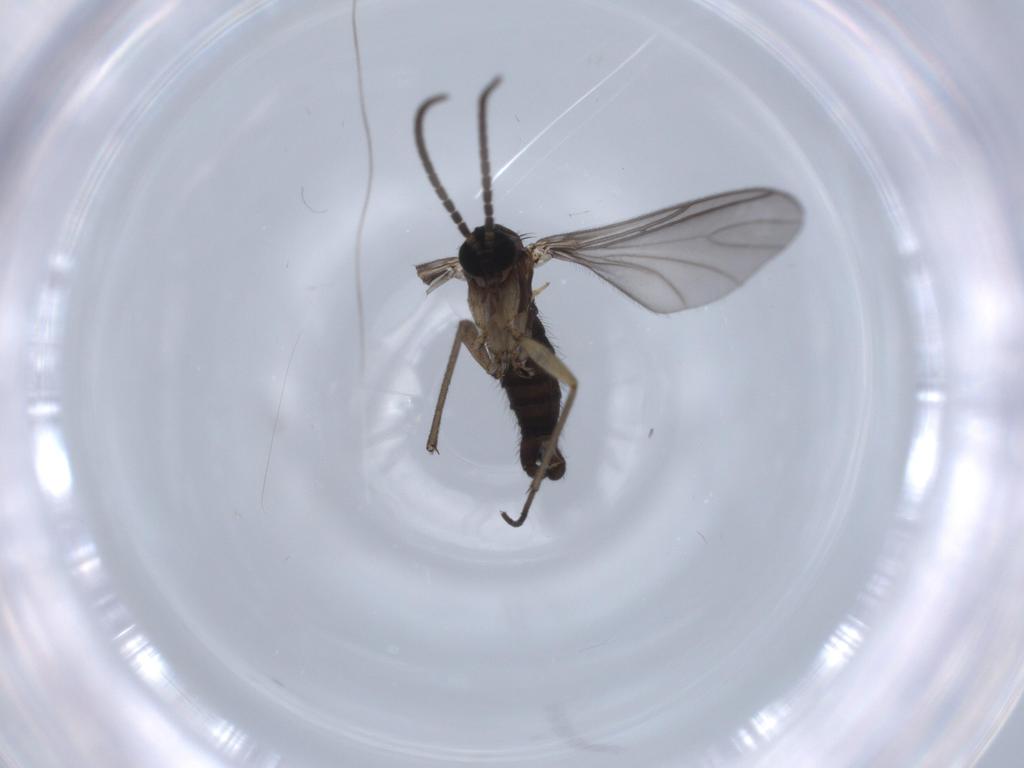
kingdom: Animalia
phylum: Arthropoda
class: Insecta
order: Diptera
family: Sciaridae
